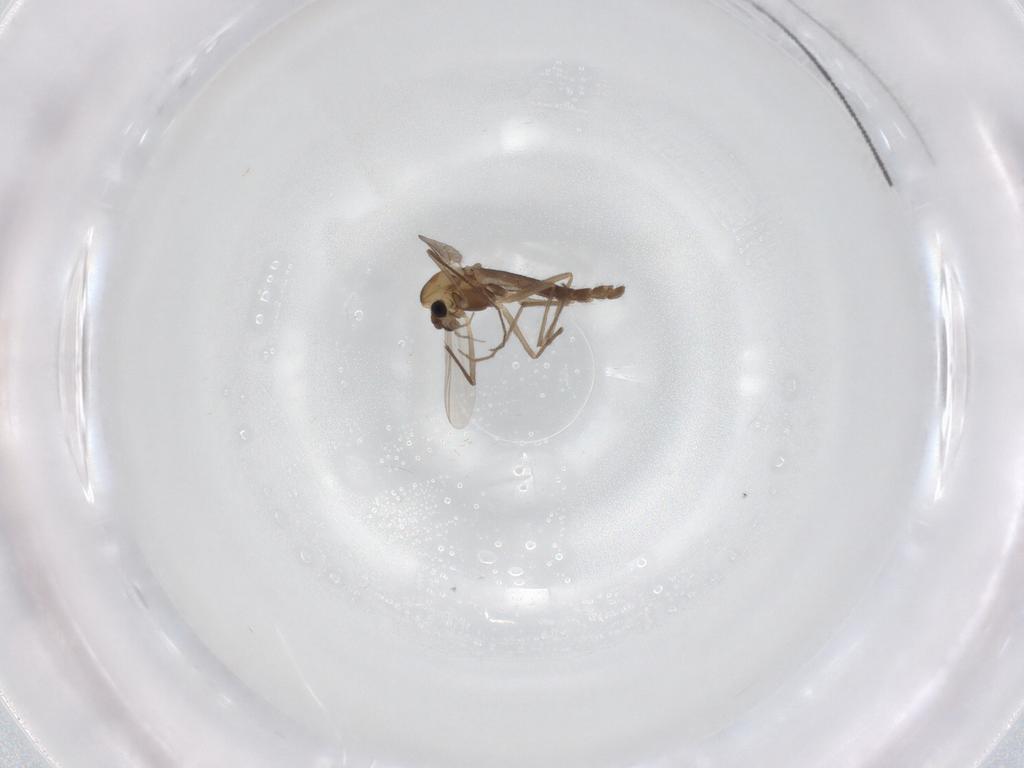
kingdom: Animalia
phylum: Arthropoda
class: Insecta
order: Diptera
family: Chironomidae
